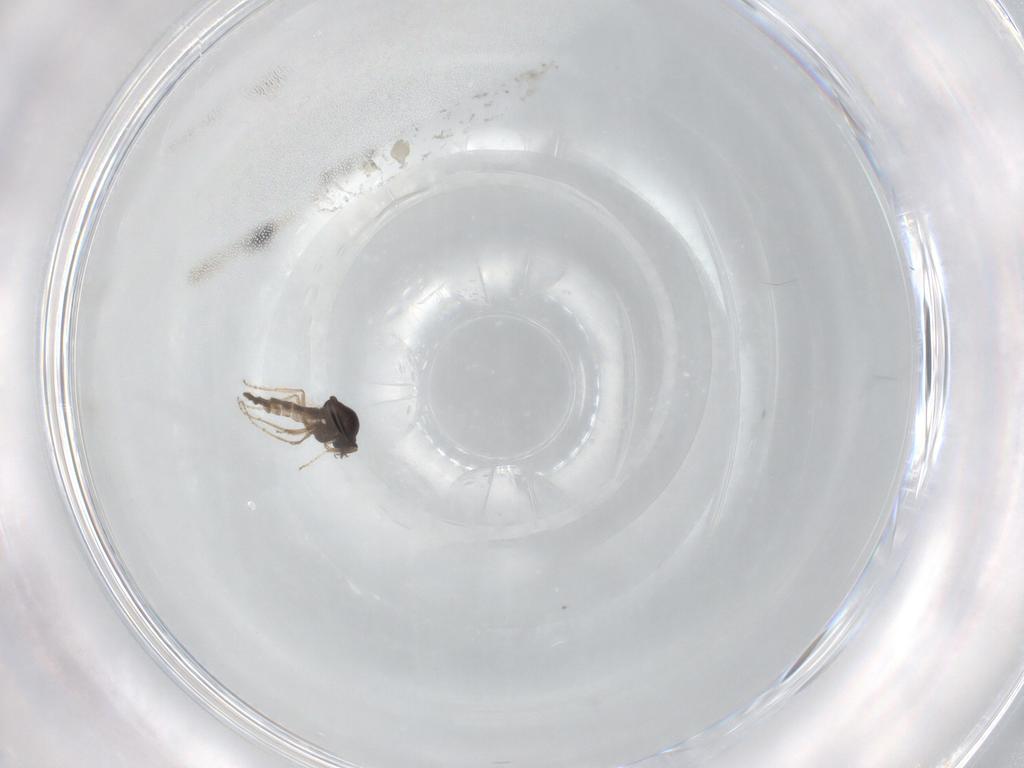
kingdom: Animalia
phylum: Arthropoda
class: Insecta
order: Diptera
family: Ceratopogonidae
